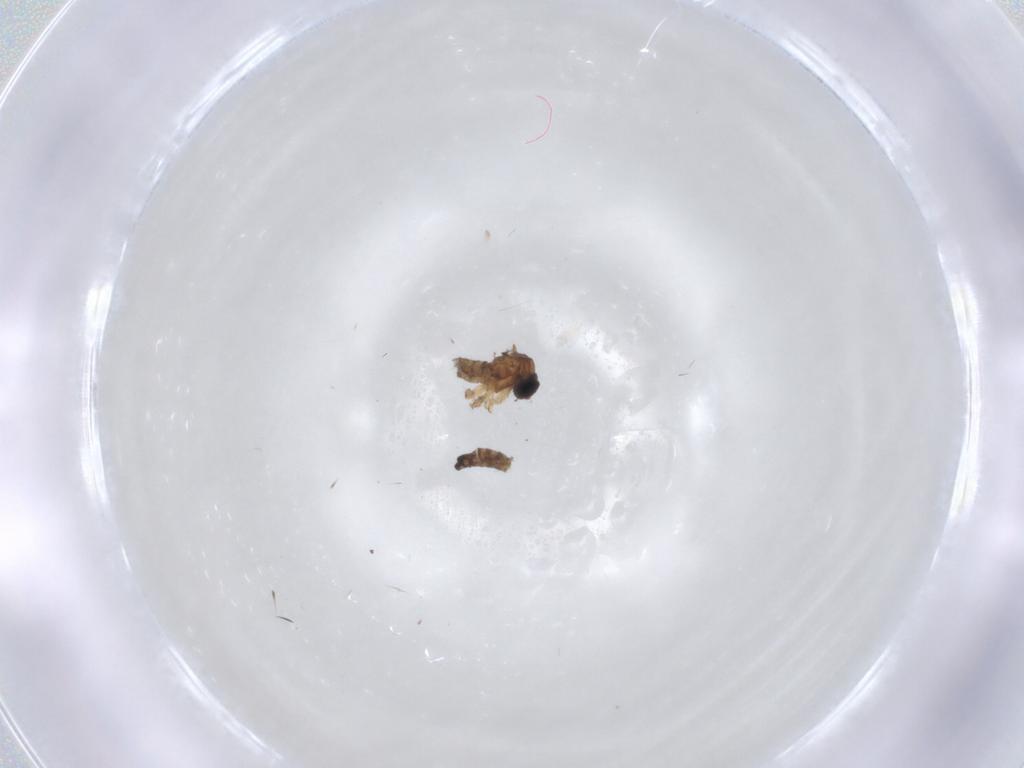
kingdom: Animalia
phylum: Arthropoda
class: Insecta
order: Diptera
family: Sciaridae
